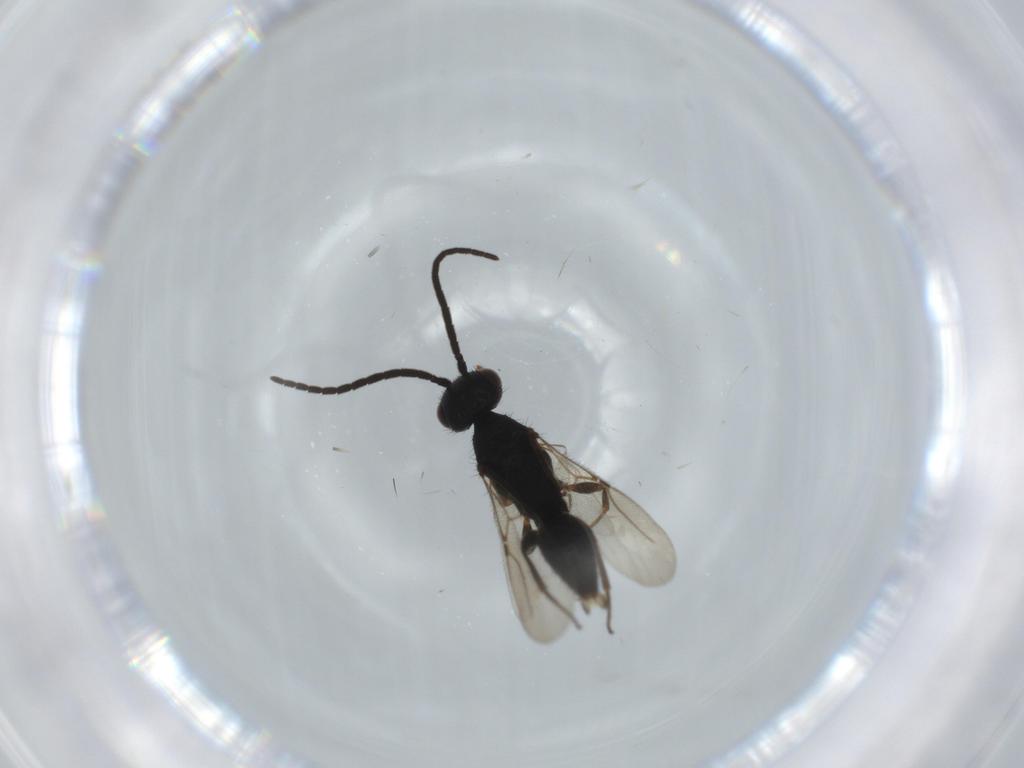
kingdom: Animalia
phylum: Arthropoda
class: Insecta
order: Hymenoptera
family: Bethylidae
